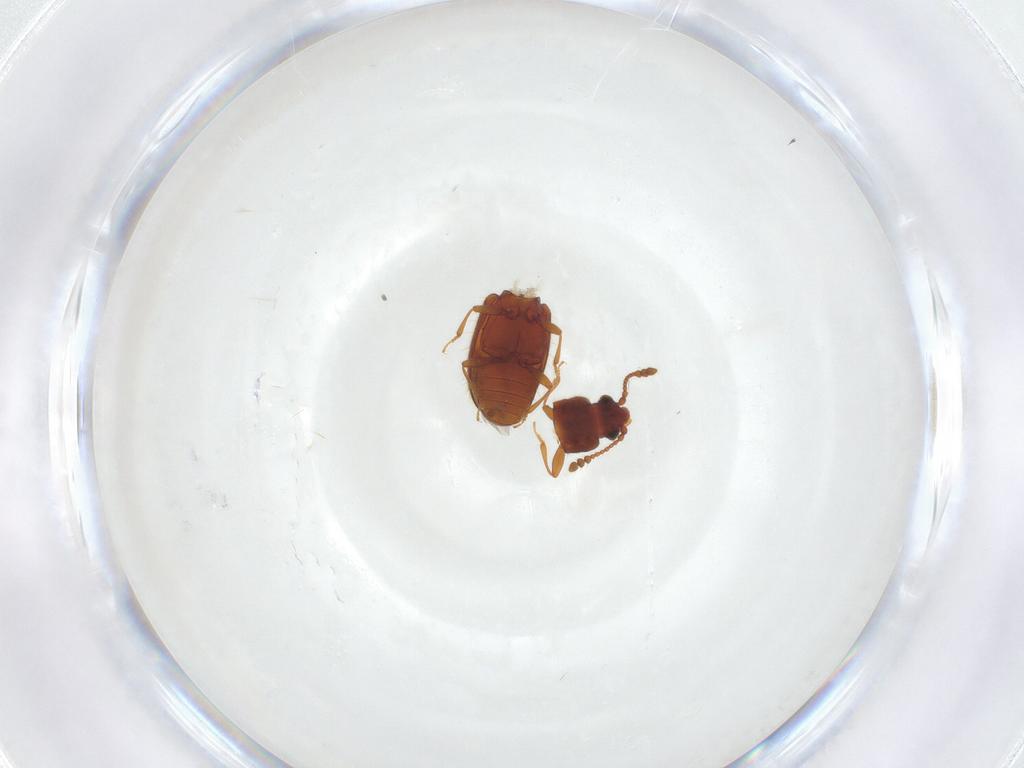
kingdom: Animalia
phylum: Arthropoda
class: Insecta
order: Coleoptera
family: Cryptophagidae
